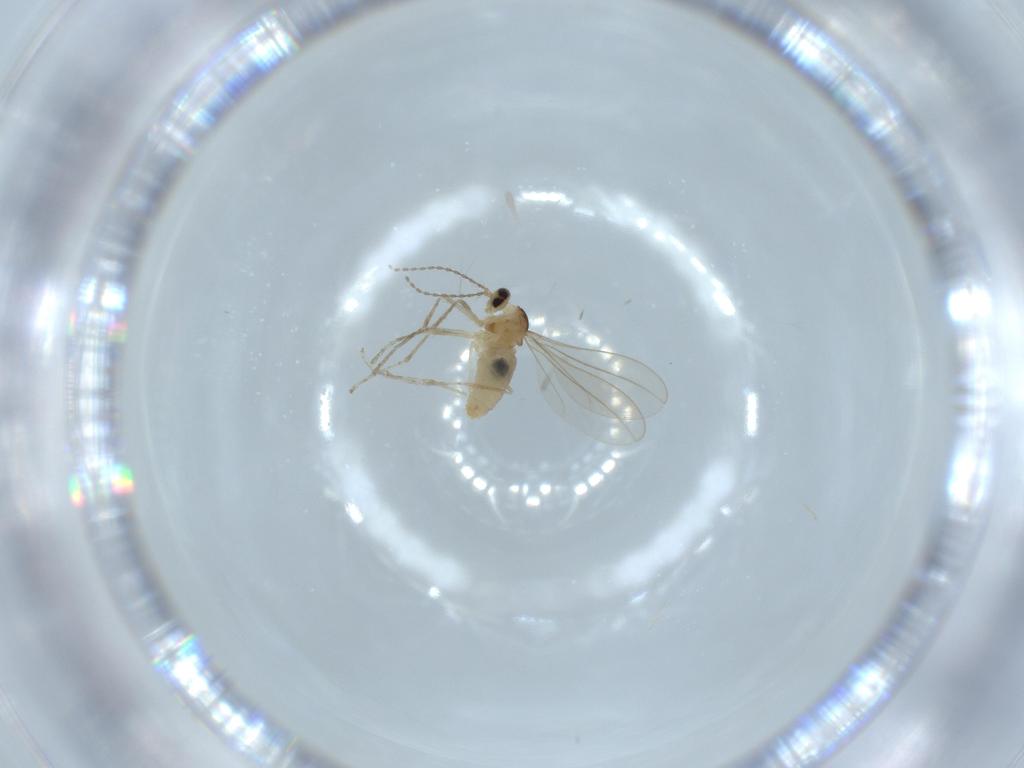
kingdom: Animalia
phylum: Arthropoda
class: Insecta
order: Diptera
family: Cecidomyiidae
